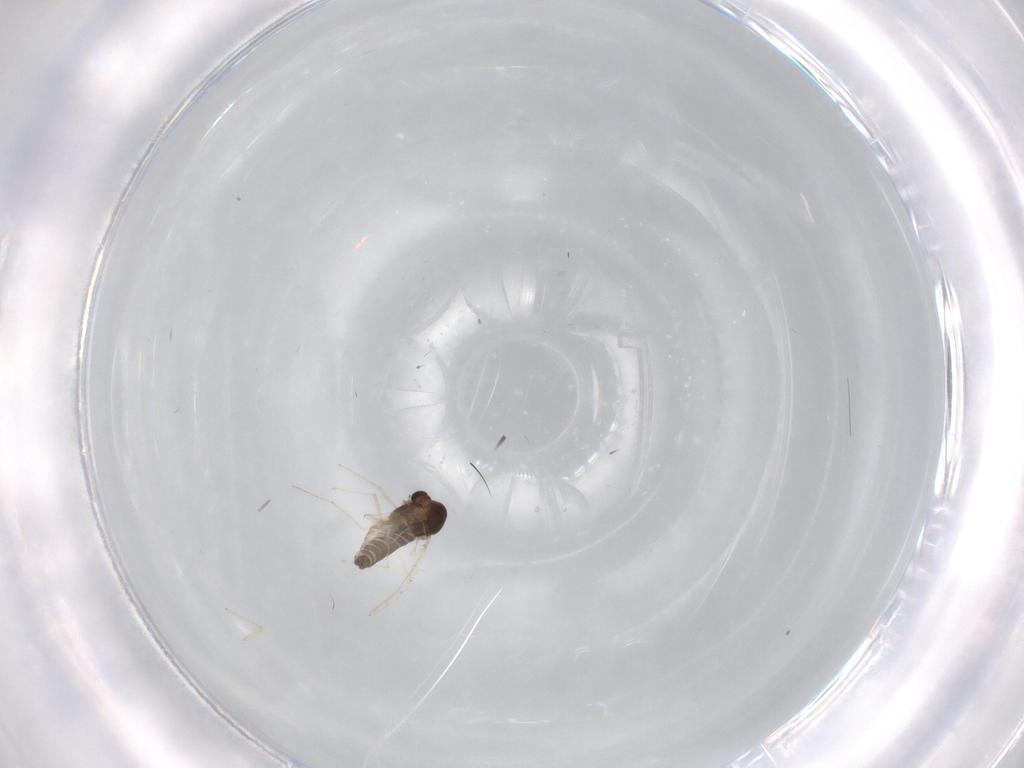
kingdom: Animalia
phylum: Arthropoda
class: Insecta
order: Diptera
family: Chironomidae
